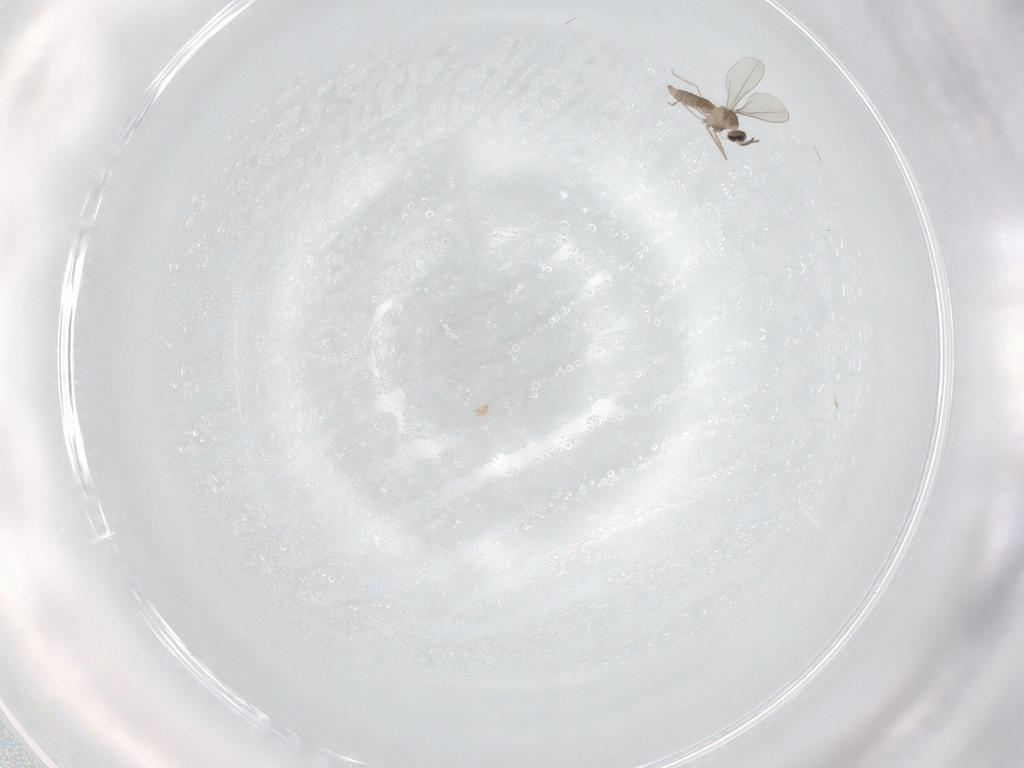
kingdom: Animalia
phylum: Arthropoda
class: Insecta
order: Diptera
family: Phoridae
